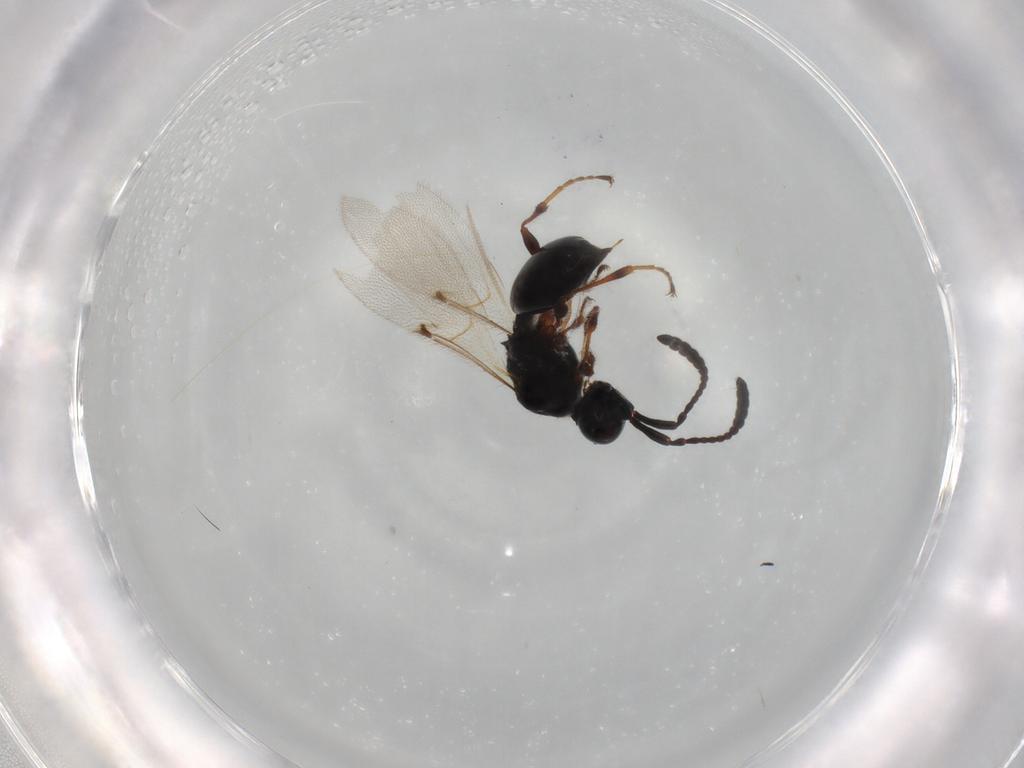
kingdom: Animalia
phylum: Arthropoda
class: Insecta
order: Hymenoptera
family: Diapriidae
